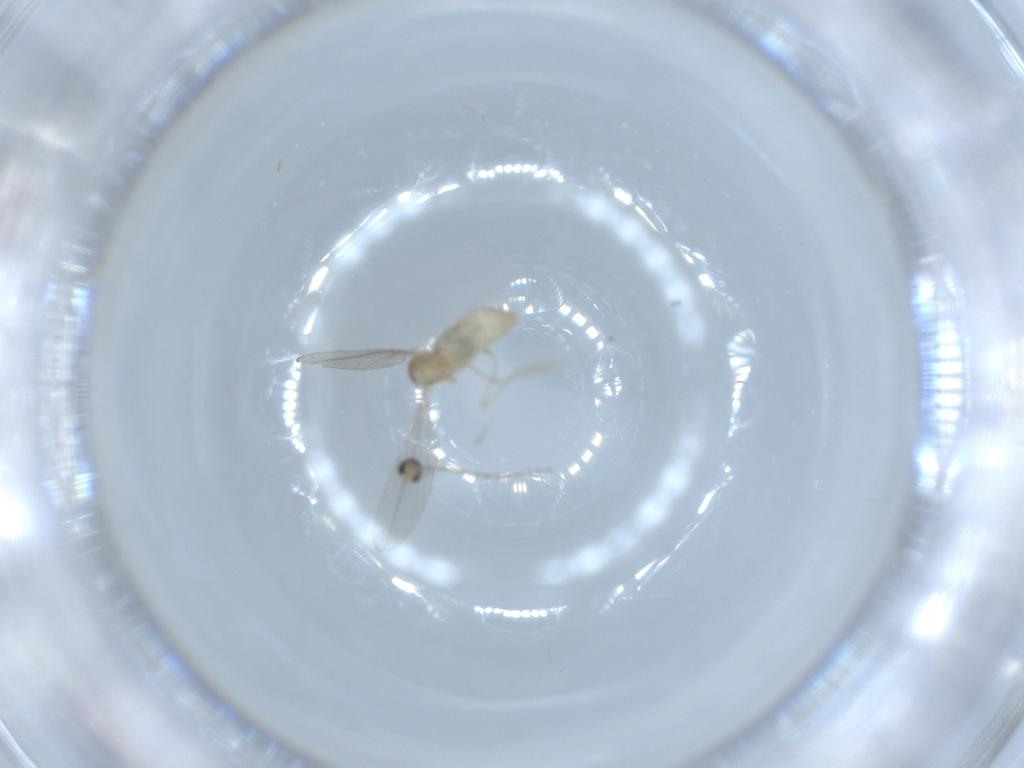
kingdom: Animalia
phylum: Arthropoda
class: Insecta
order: Diptera
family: Cecidomyiidae
